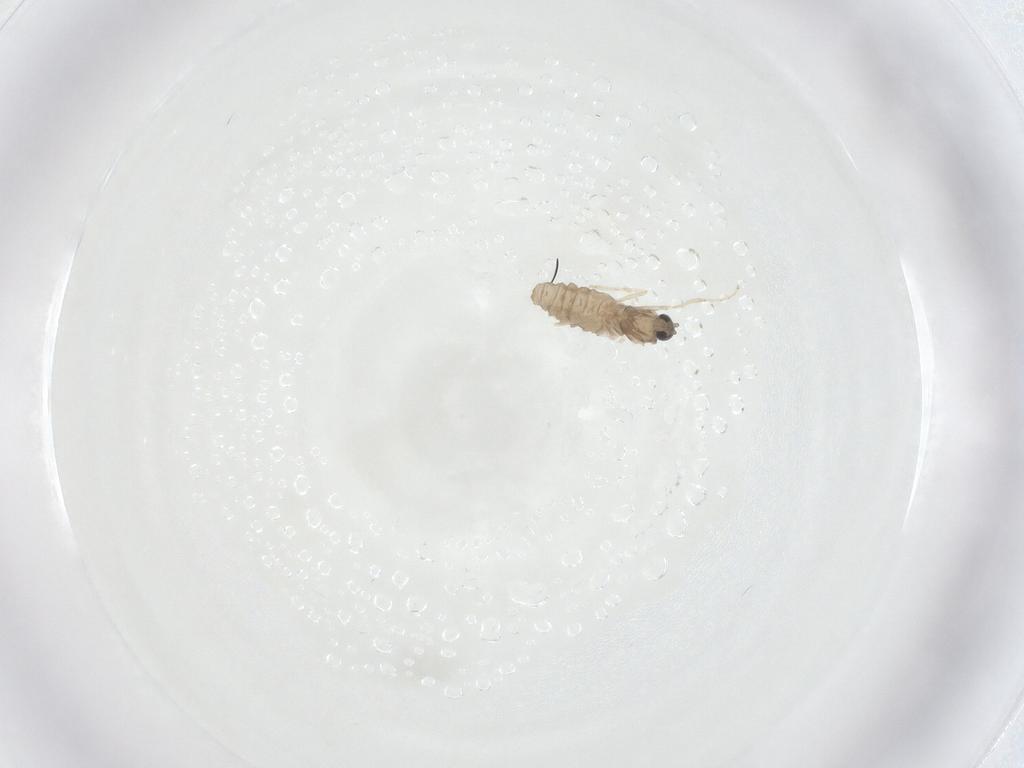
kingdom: Animalia
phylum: Arthropoda
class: Insecta
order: Diptera
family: Cecidomyiidae
